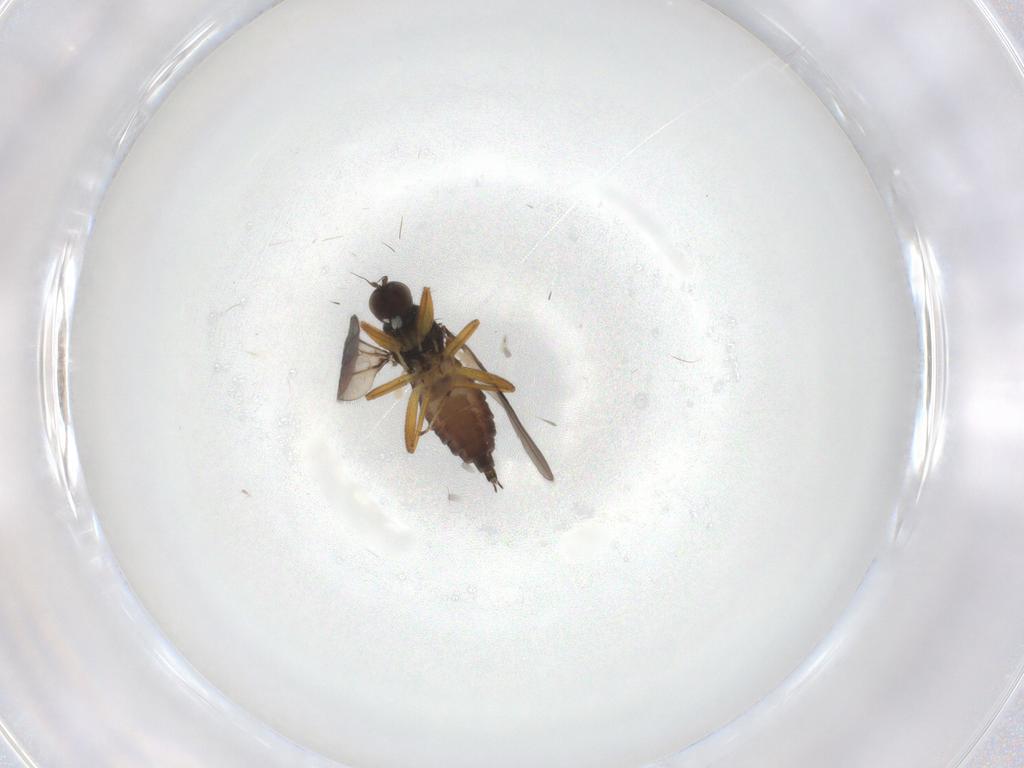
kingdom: Animalia
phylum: Arthropoda
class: Insecta
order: Diptera
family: Hybotidae
